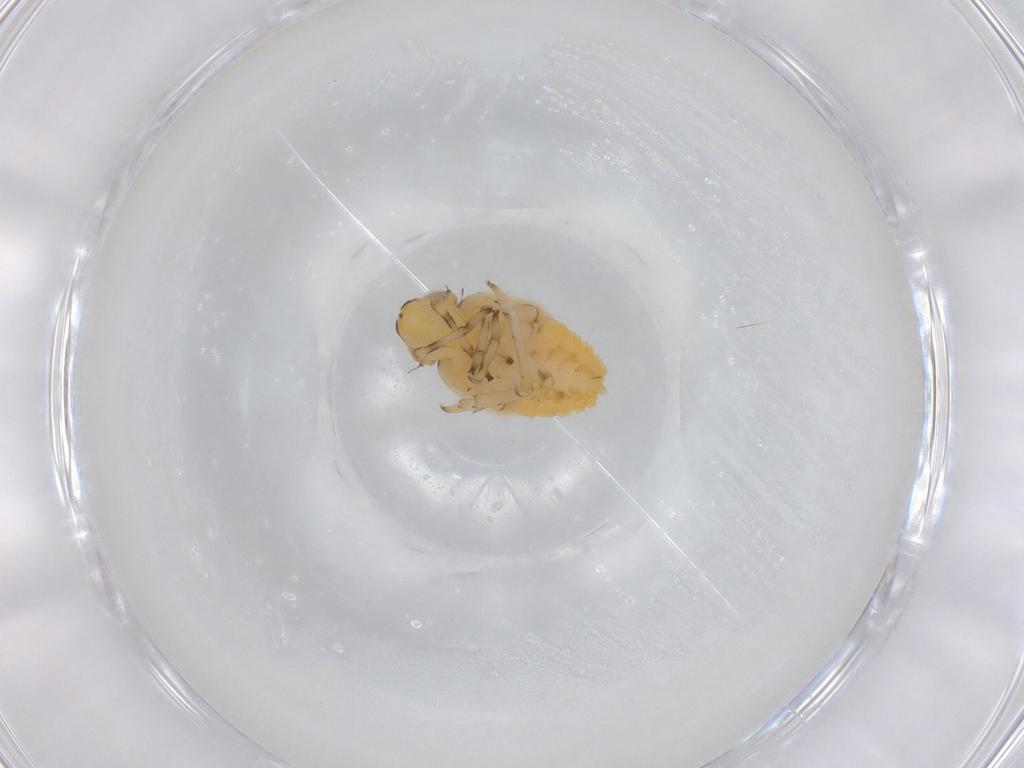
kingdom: Animalia
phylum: Arthropoda
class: Insecta
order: Hemiptera
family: Issidae
